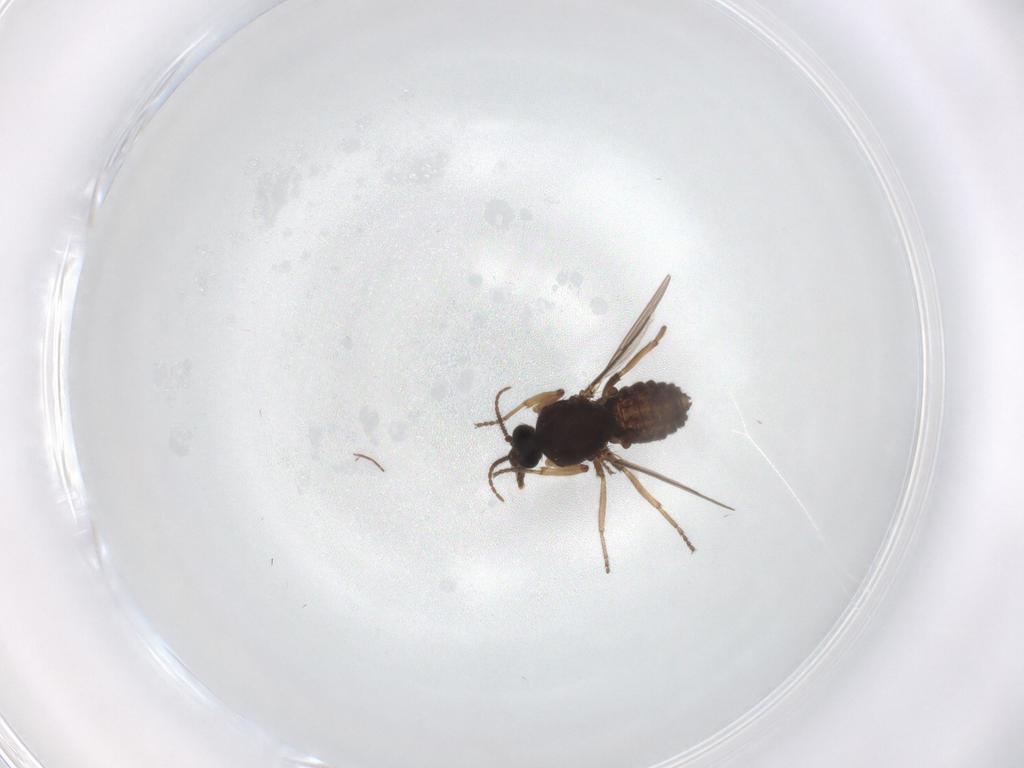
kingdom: Animalia
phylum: Arthropoda
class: Insecta
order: Diptera
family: Ceratopogonidae
